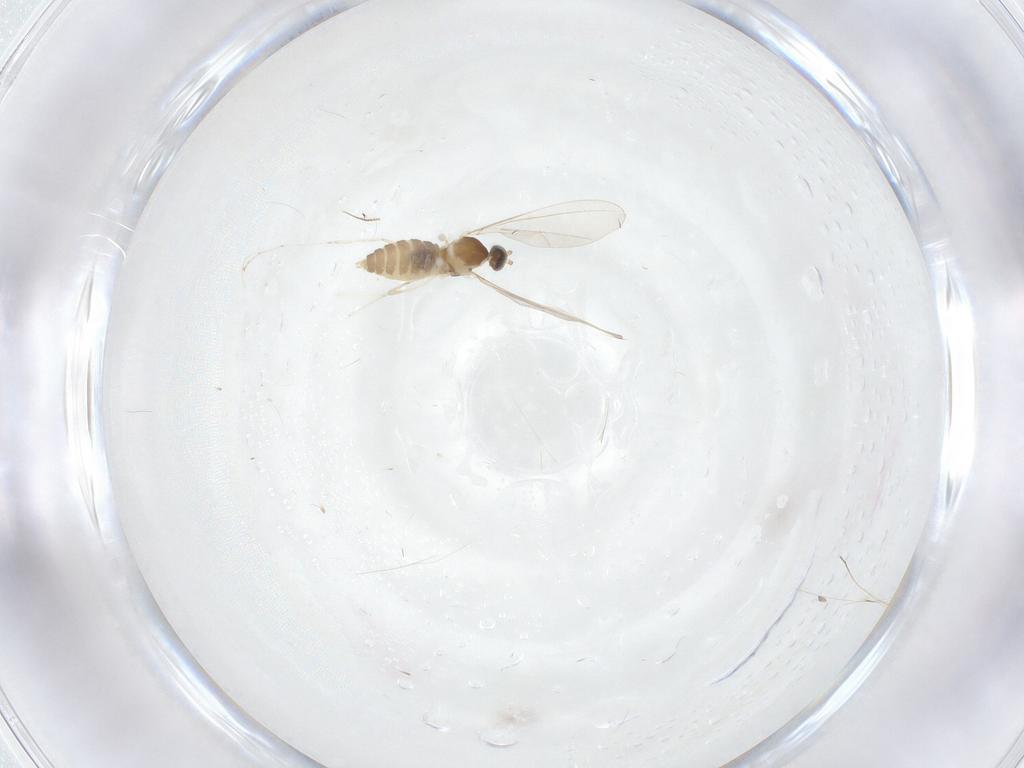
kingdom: Animalia
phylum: Arthropoda
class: Insecta
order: Diptera
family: Cecidomyiidae
